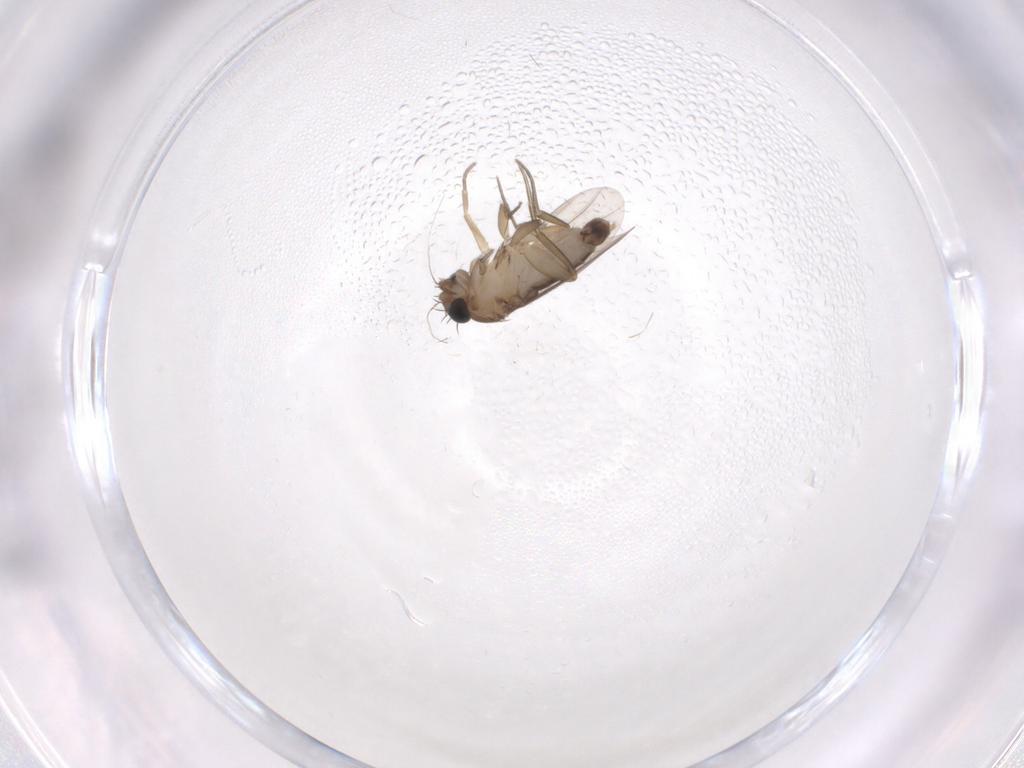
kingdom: Animalia
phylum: Arthropoda
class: Insecta
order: Diptera
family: Phoridae
